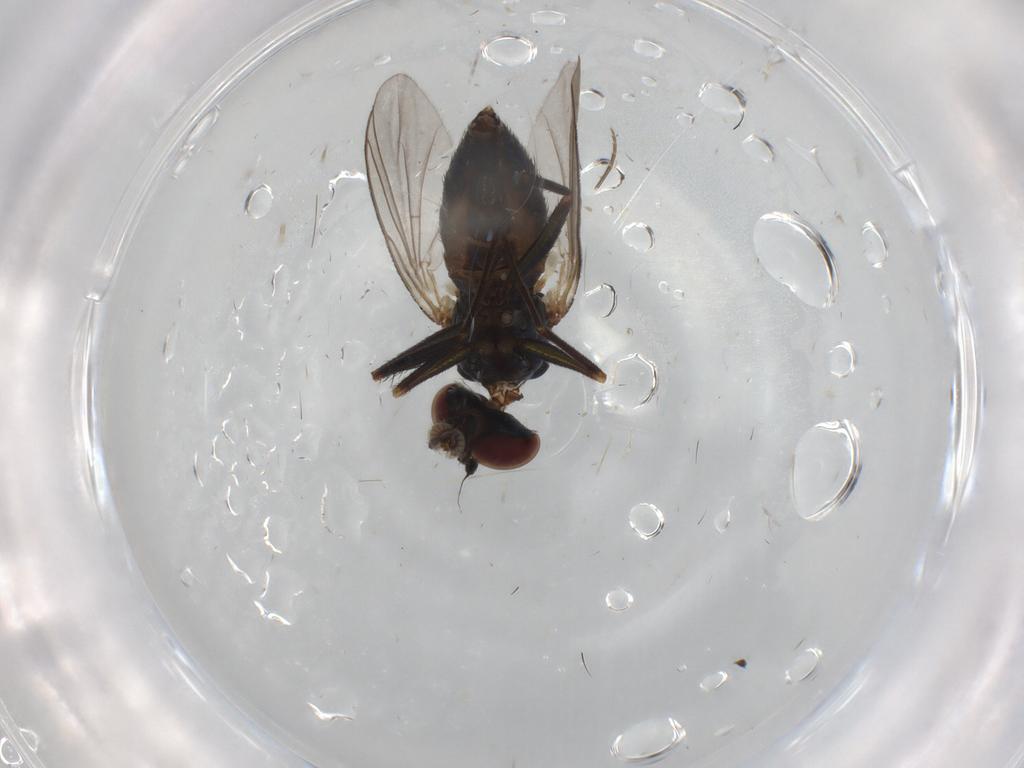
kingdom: Animalia
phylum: Arthropoda
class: Insecta
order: Diptera
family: Dolichopodidae
